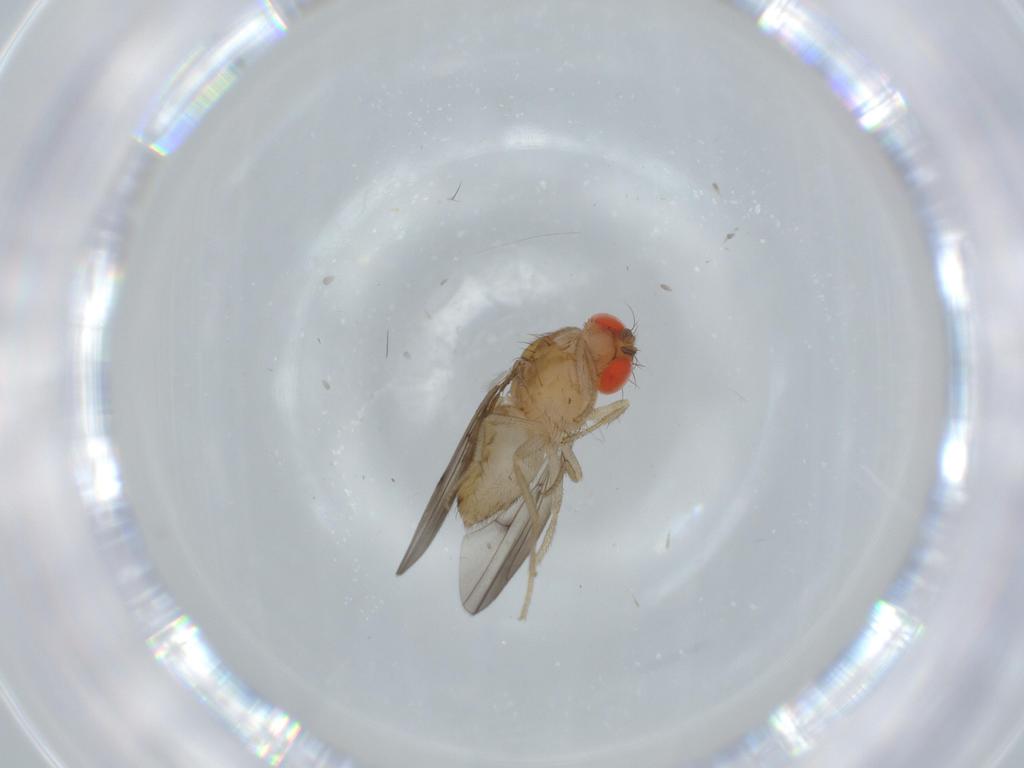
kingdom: Animalia
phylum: Arthropoda
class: Insecta
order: Diptera
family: Drosophilidae
